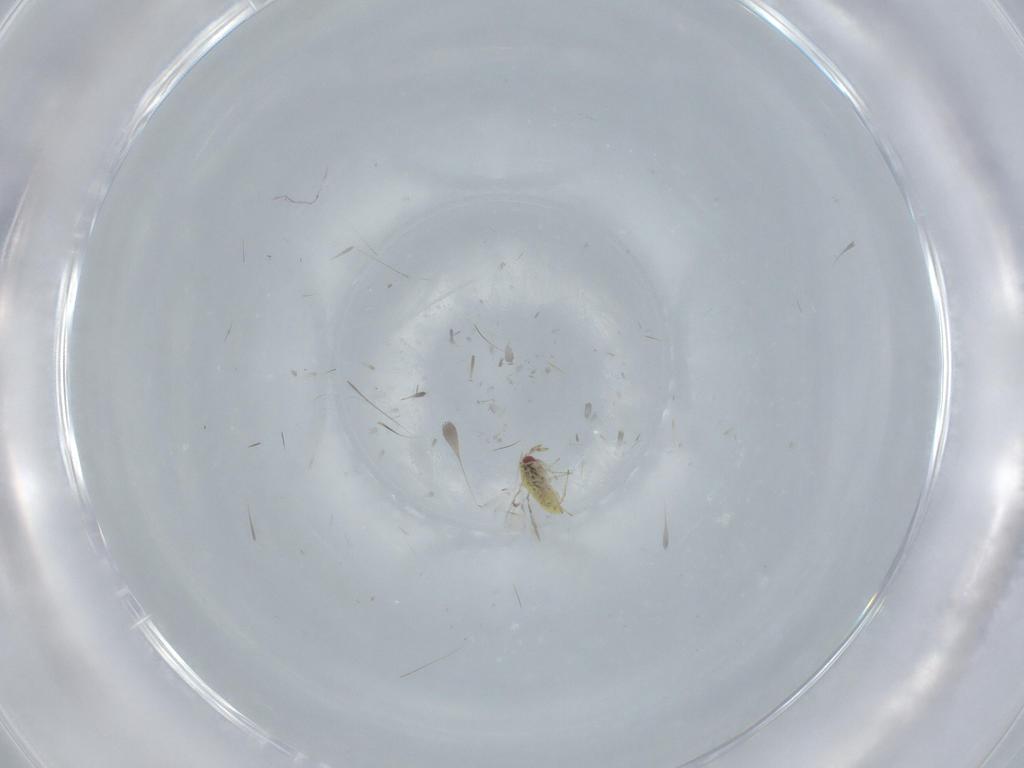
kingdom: Animalia
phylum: Arthropoda
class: Insecta
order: Hymenoptera
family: Trichogrammatidae
